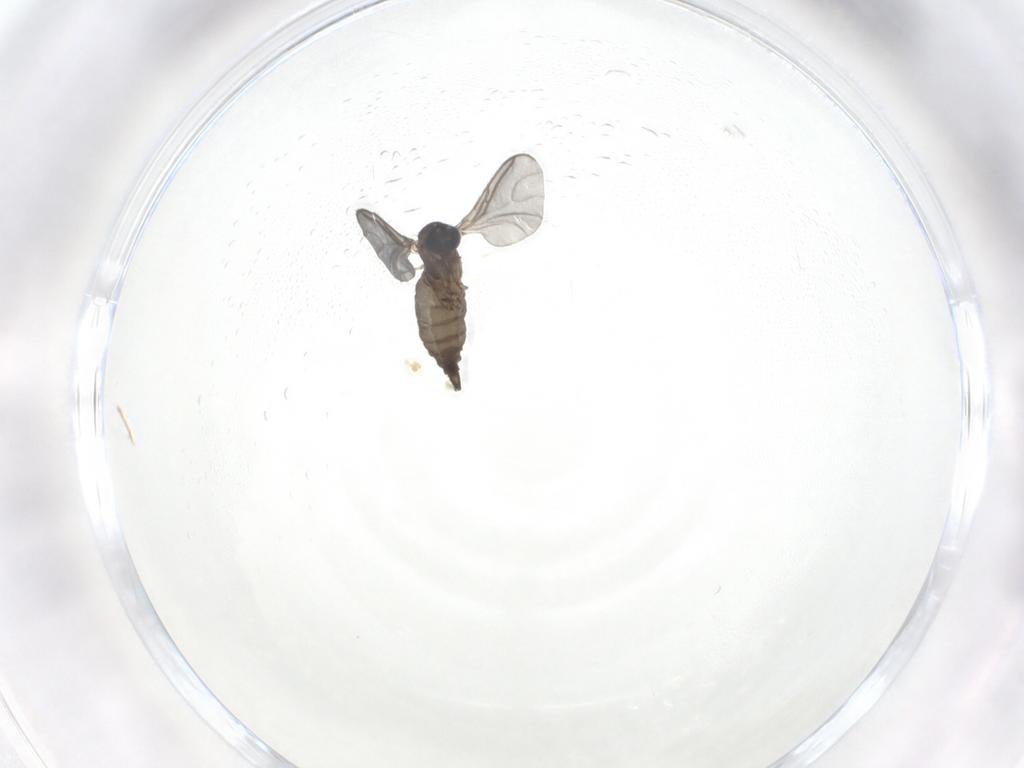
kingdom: Animalia
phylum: Arthropoda
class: Insecta
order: Diptera
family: Sciaridae
